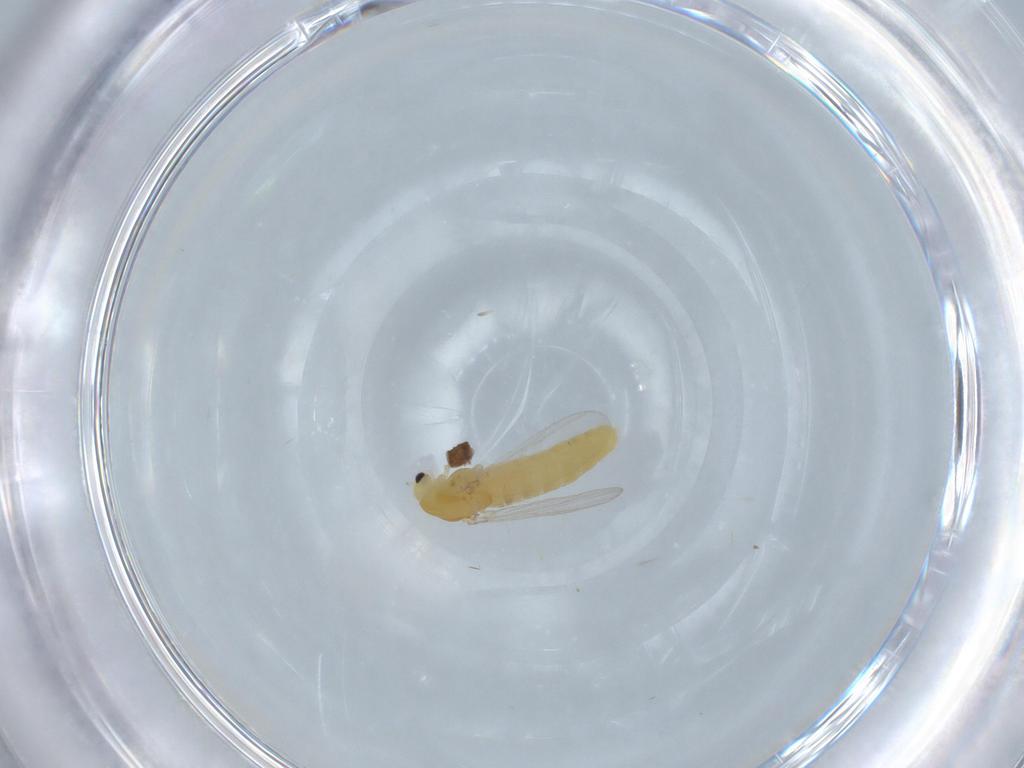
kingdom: Animalia
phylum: Arthropoda
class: Insecta
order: Diptera
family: Chironomidae
